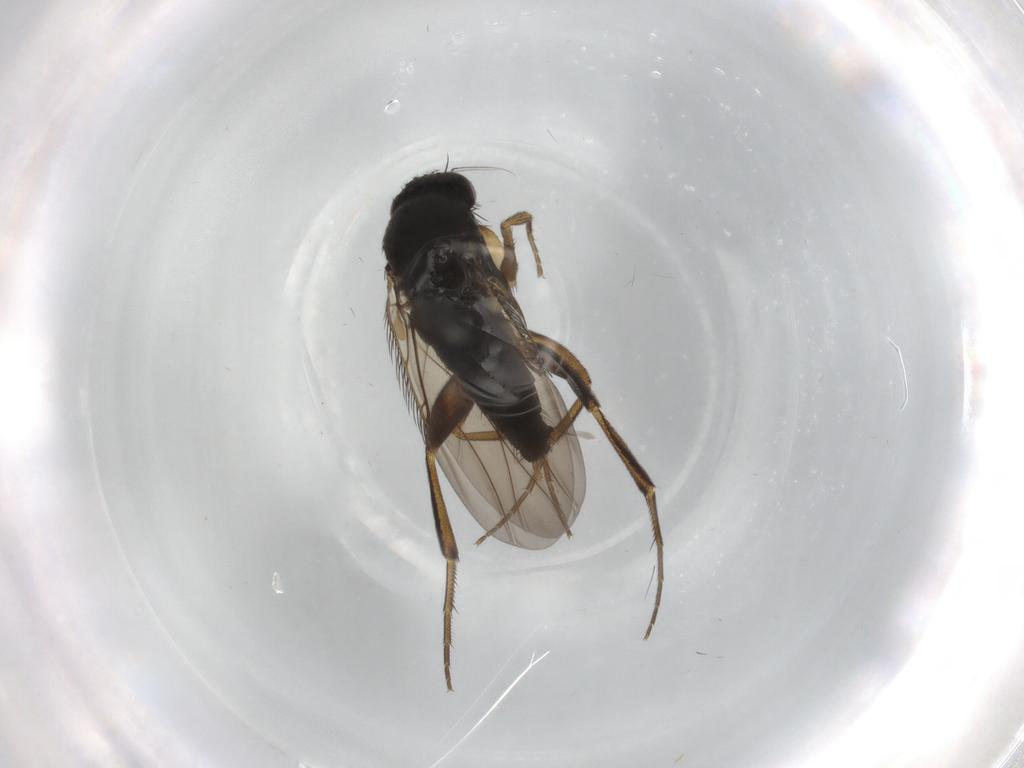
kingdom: Animalia
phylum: Arthropoda
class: Insecta
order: Diptera
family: Phoridae
